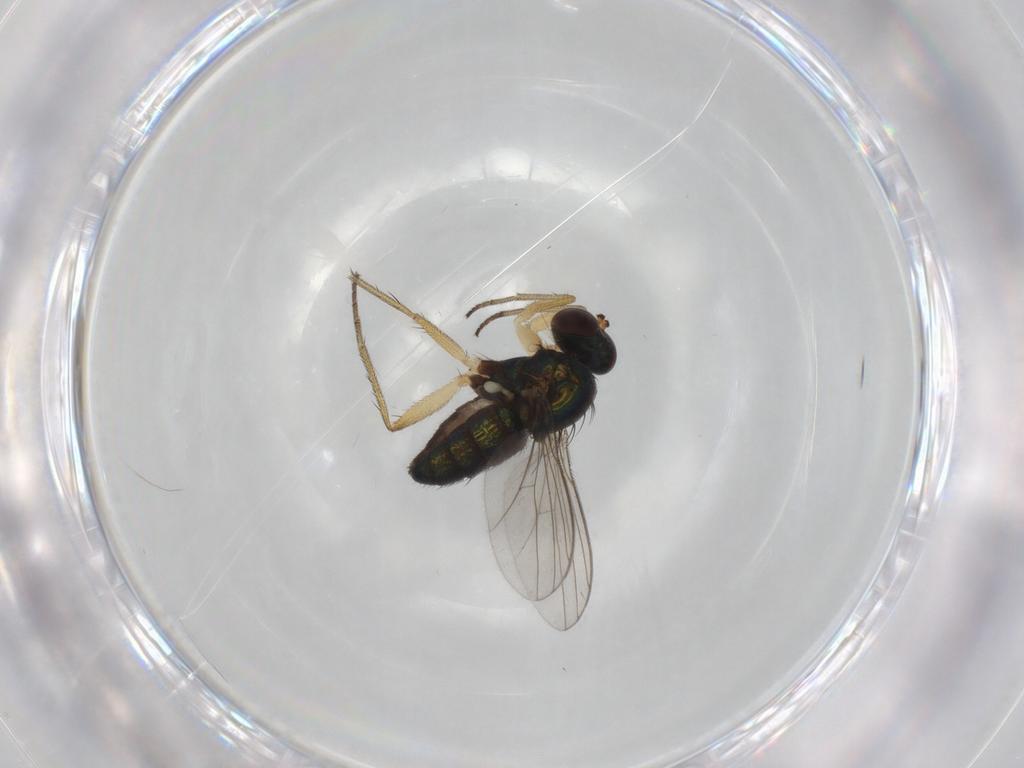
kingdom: Animalia
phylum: Arthropoda
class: Insecta
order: Diptera
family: Dolichopodidae
